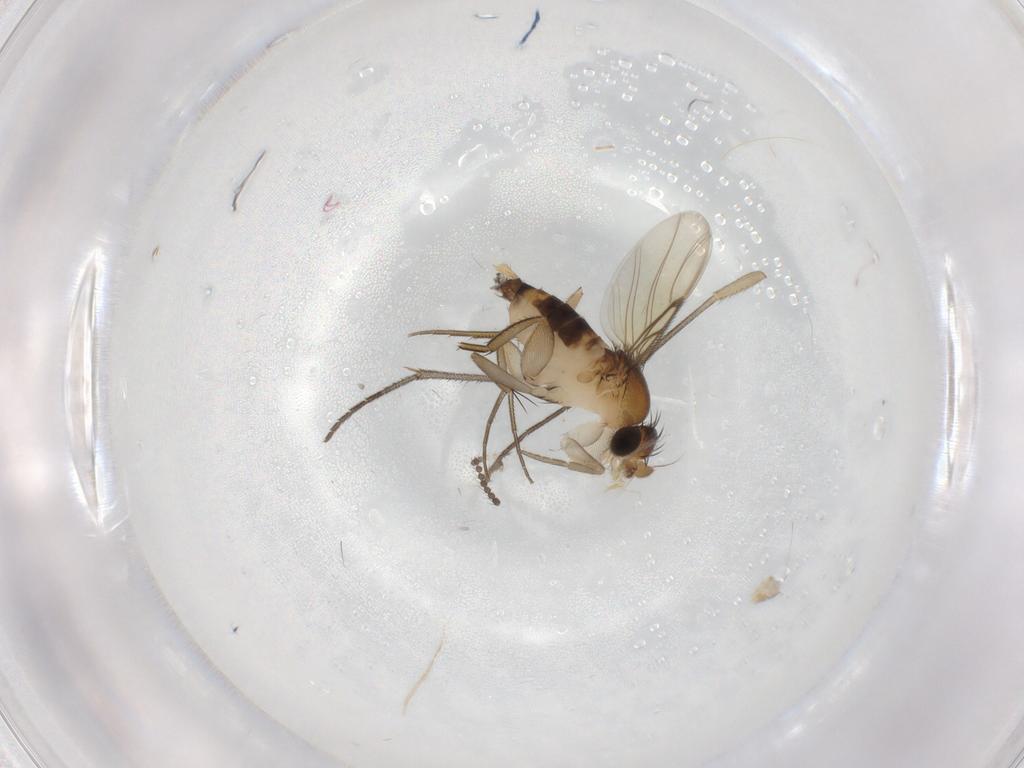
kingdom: Animalia
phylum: Arthropoda
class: Insecta
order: Diptera
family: Phoridae
